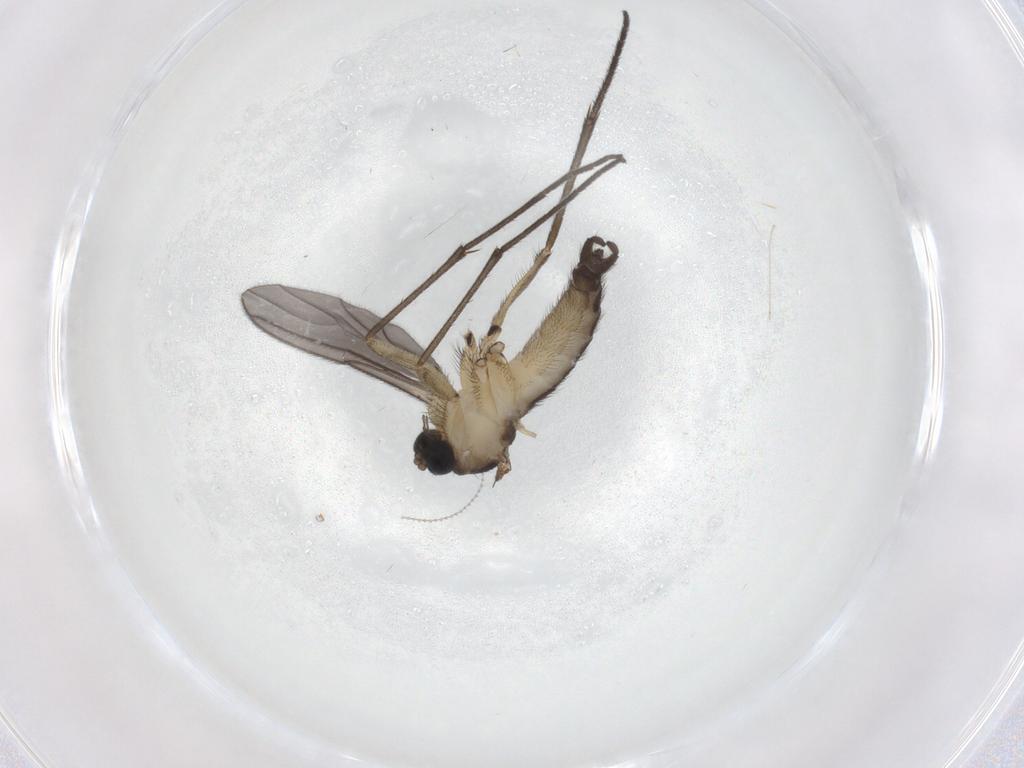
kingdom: Animalia
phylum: Arthropoda
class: Insecta
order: Diptera
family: Sciaridae
